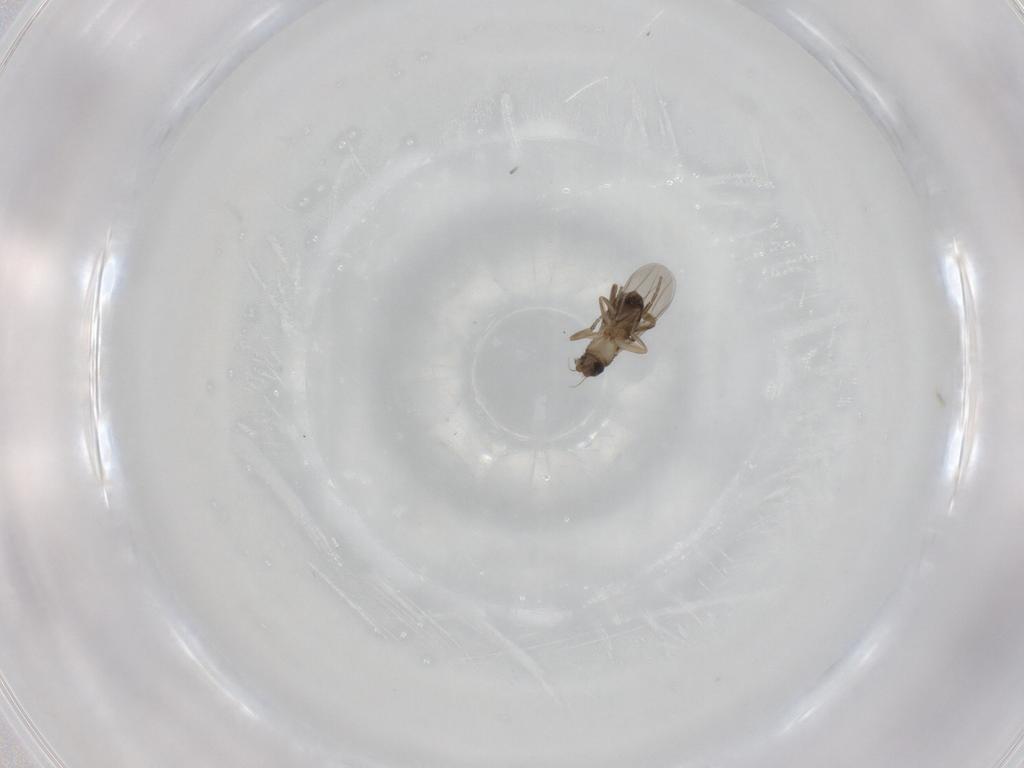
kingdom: Animalia
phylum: Arthropoda
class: Insecta
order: Diptera
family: Phoridae
